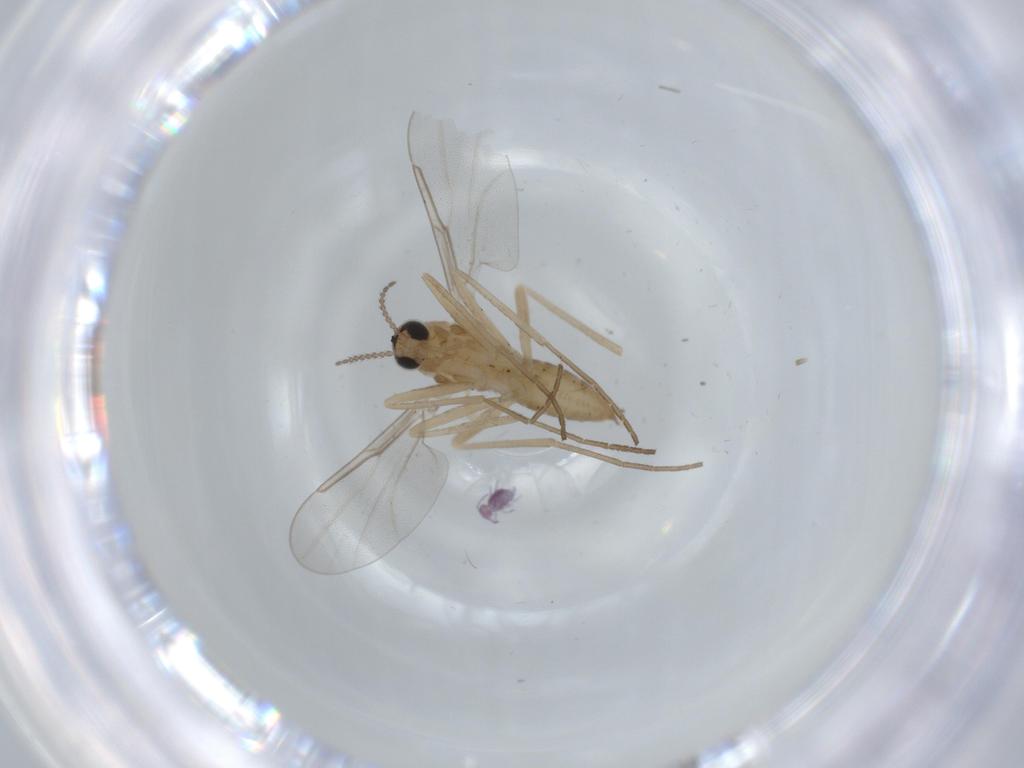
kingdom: Animalia
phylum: Arthropoda
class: Insecta
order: Diptera
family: Cecidomyiidae
